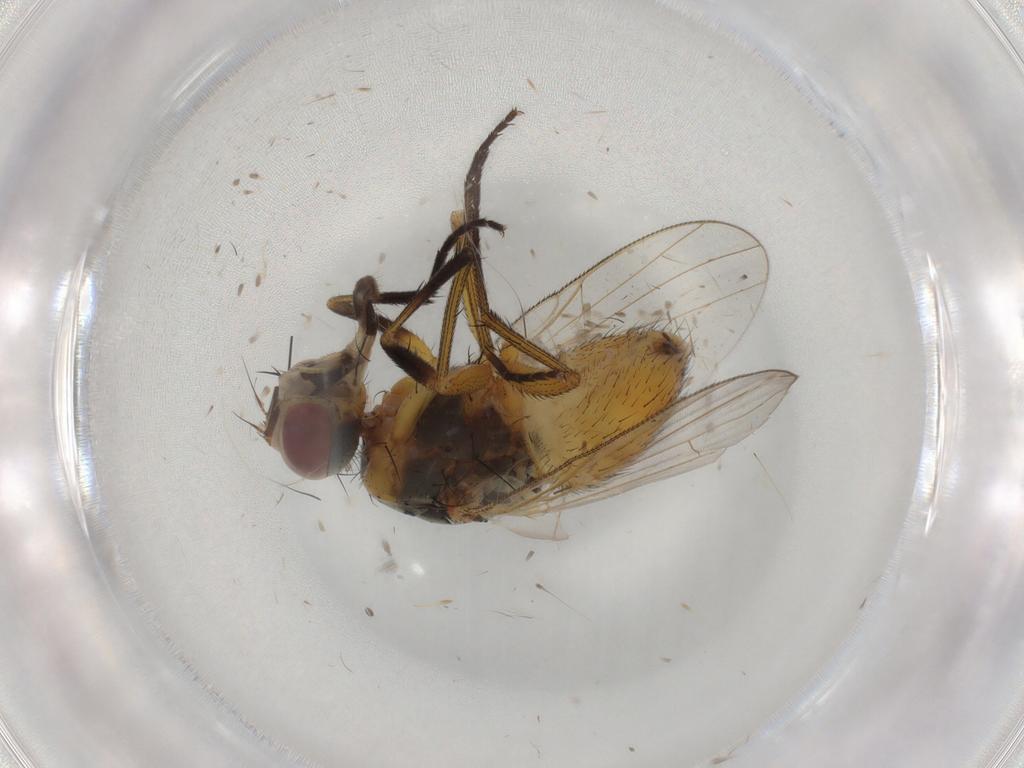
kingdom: Animalia
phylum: Arthropoda
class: Insecta
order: Diptera
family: Muscidae
